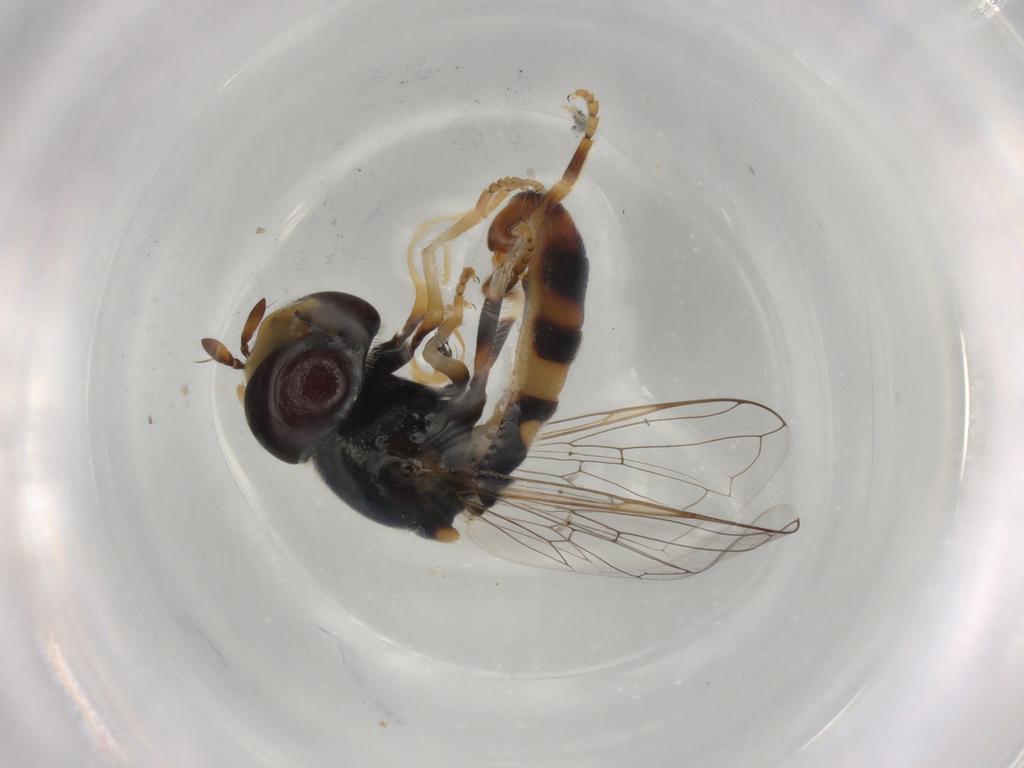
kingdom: Animalia
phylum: Arthropoda
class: Insecta
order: Diptera
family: Syrphidae
